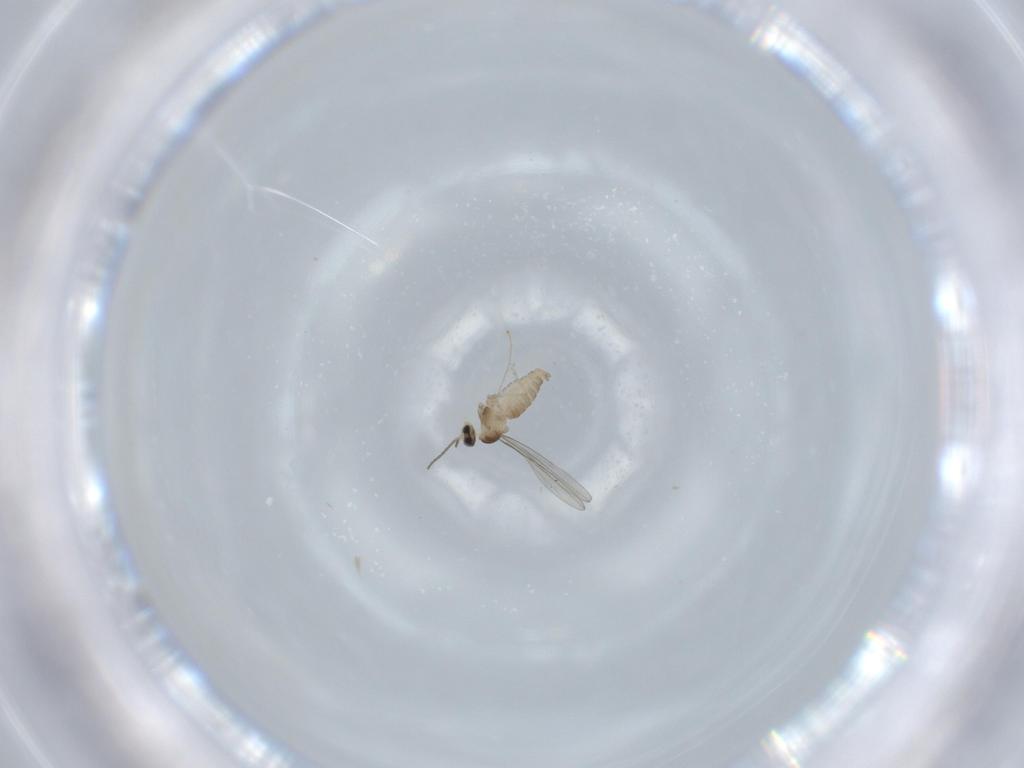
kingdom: Animalia
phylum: Arthropoda
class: Insecta
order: Diptera
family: Cecidomyiidae
